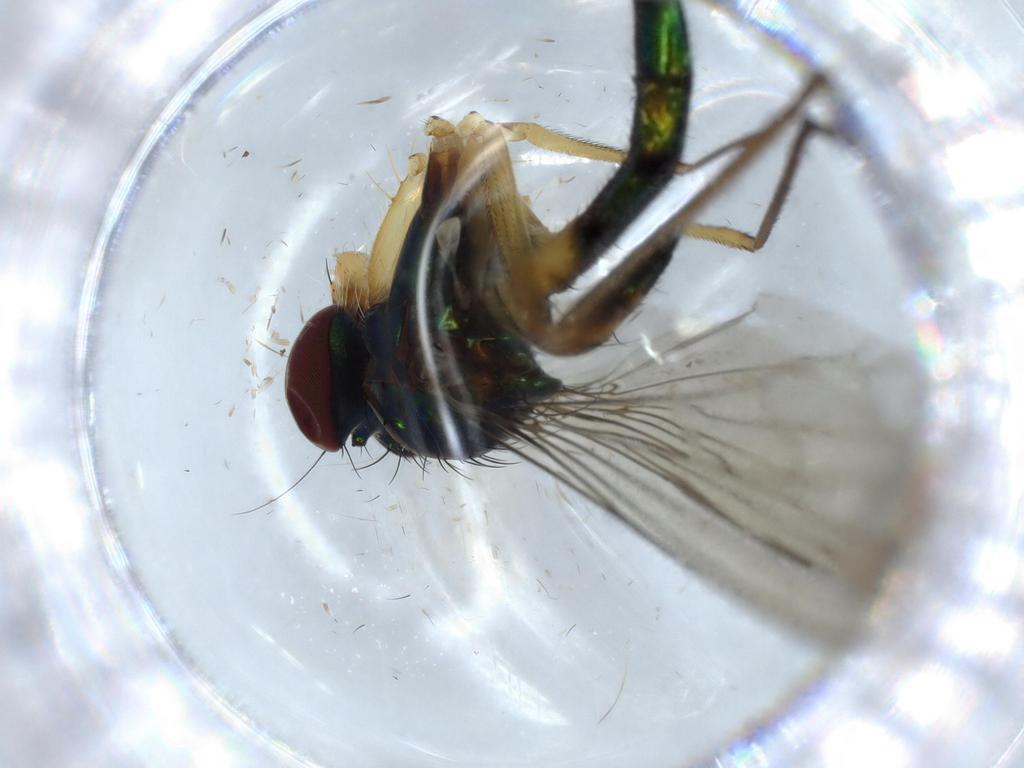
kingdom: Animalia
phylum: Arthropoda
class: Insecta
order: Diptera
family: Dolichopodidae
